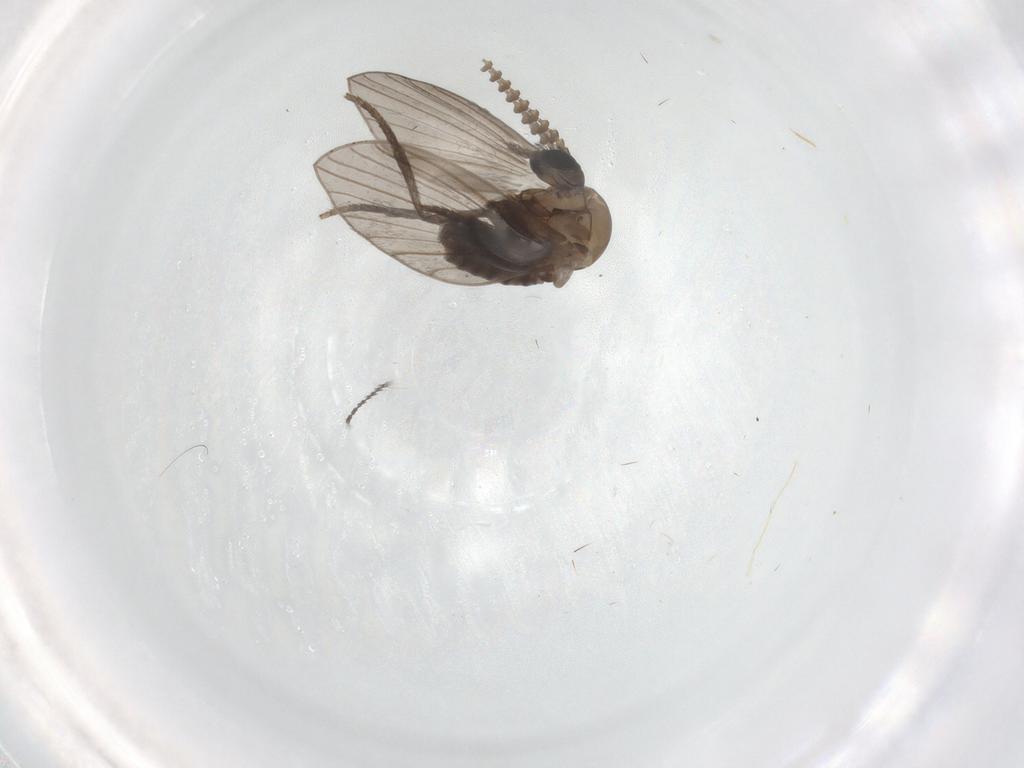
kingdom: Animalia
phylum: Arthropoda
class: Insecta
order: Diptera
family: Psychodidae
